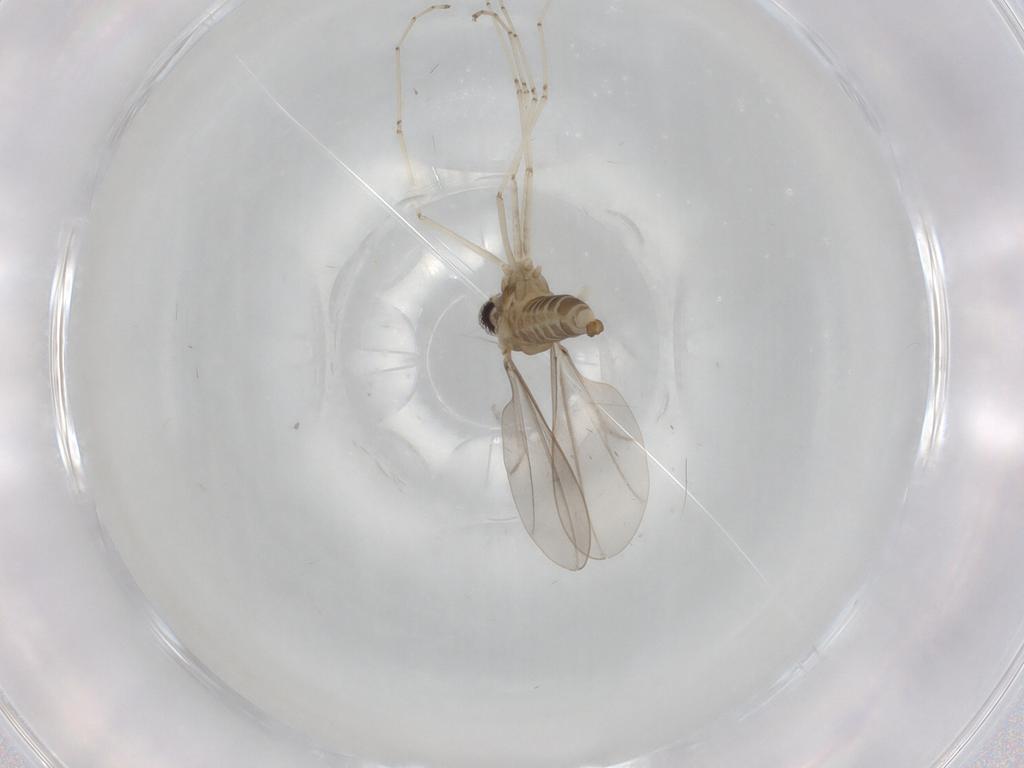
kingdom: Animalia
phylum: Arthropoda
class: Insecta
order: Diptera
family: Cecidomyiidae
